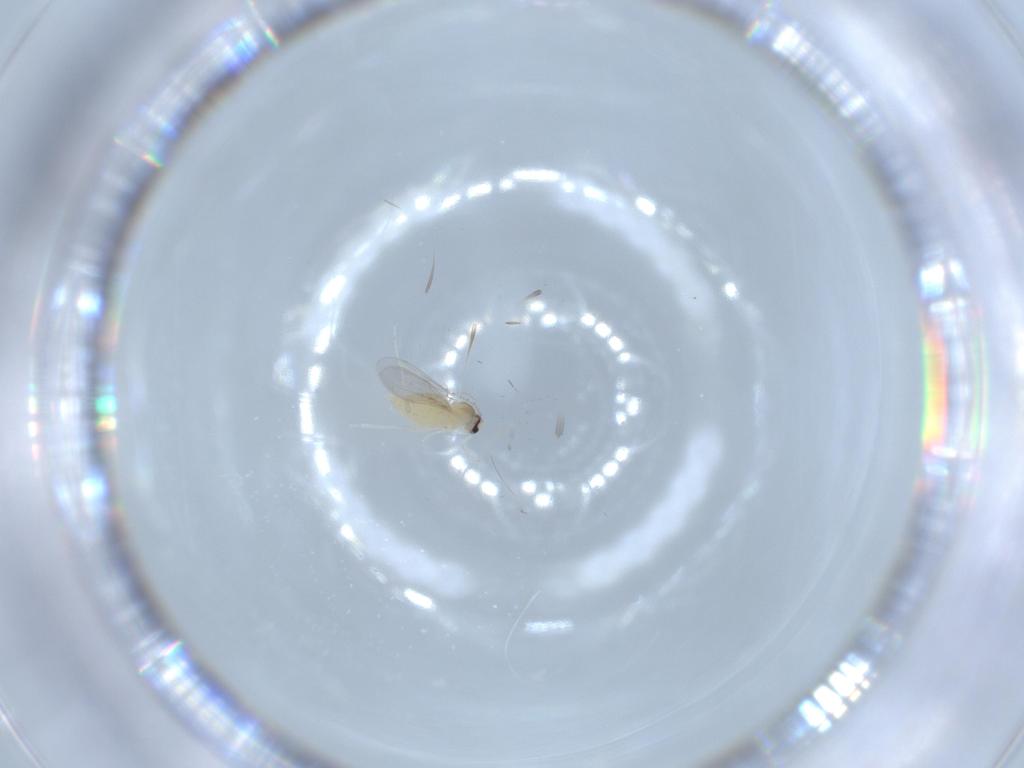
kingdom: Animalia
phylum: Arthropoda
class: Insecta
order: Diptera
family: Cecidomyiidae
